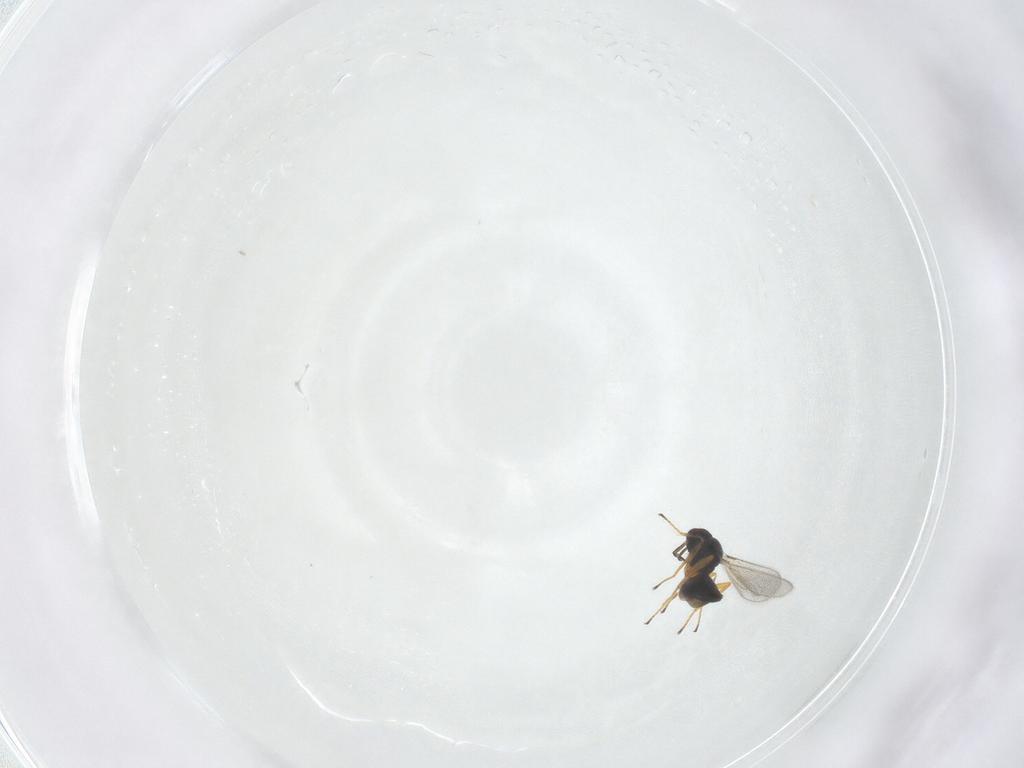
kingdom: Animalia
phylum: Arthropoda
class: Insecta
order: Hymenoptera
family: Mymaridae
